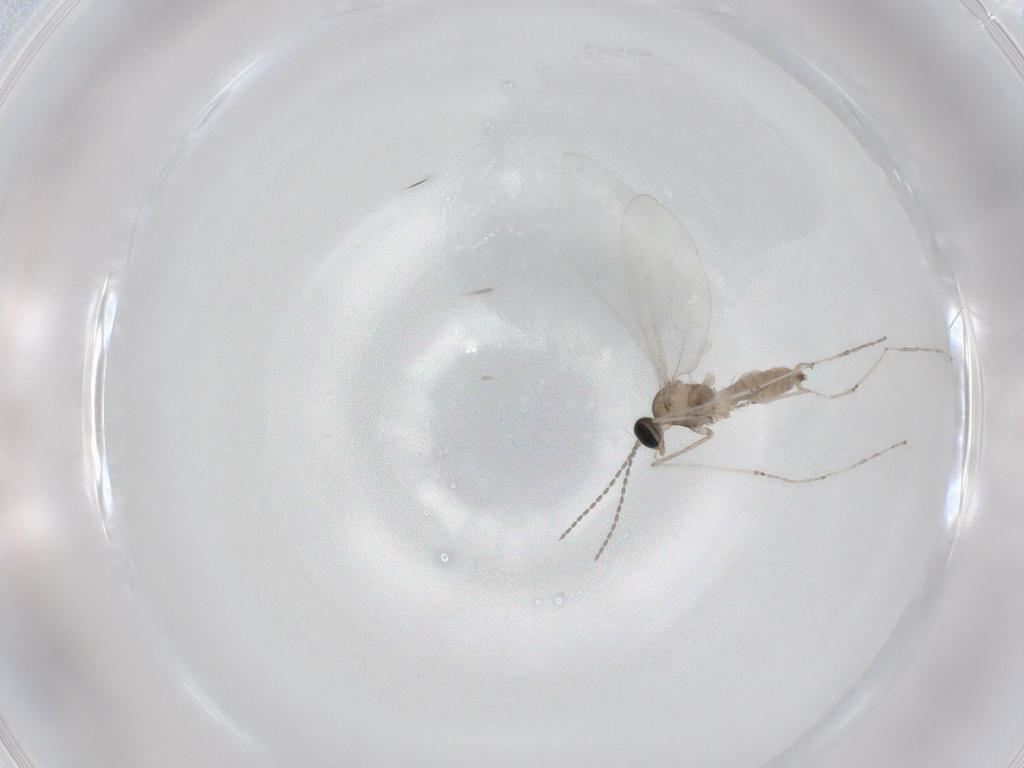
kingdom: Animalia
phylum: Arthropoda
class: Insecta
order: Diptera
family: Cecidomyiidae
